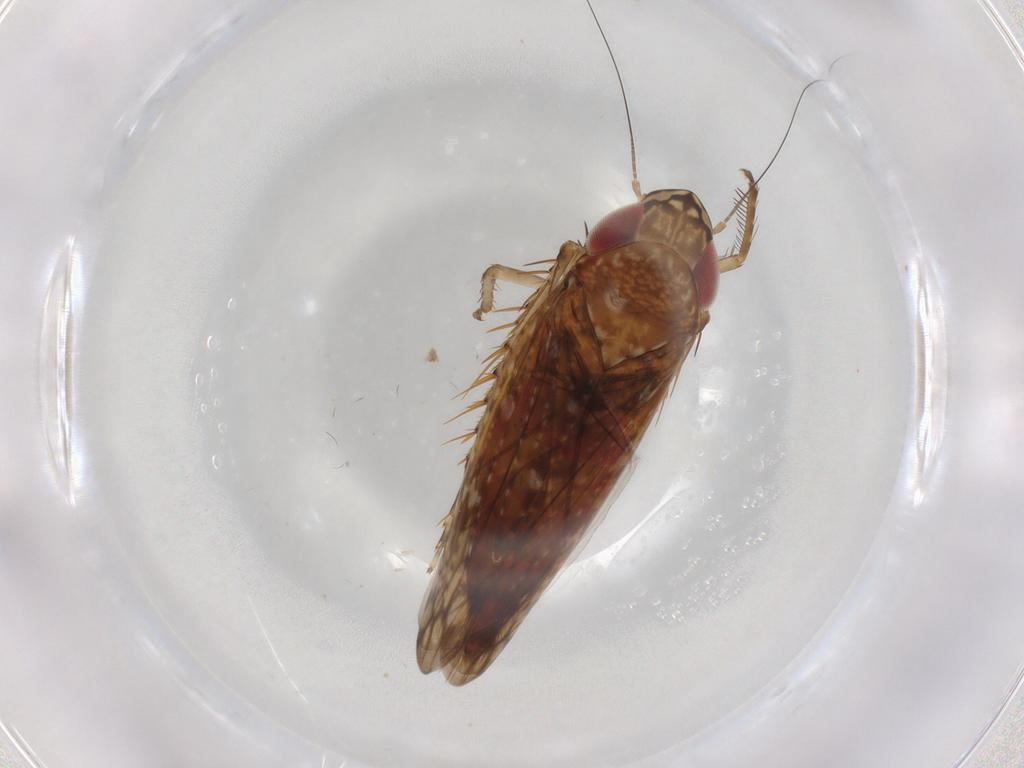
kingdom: Animalia
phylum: Arthropoda
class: Insecta
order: Hemiptera
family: Cicadellidae
